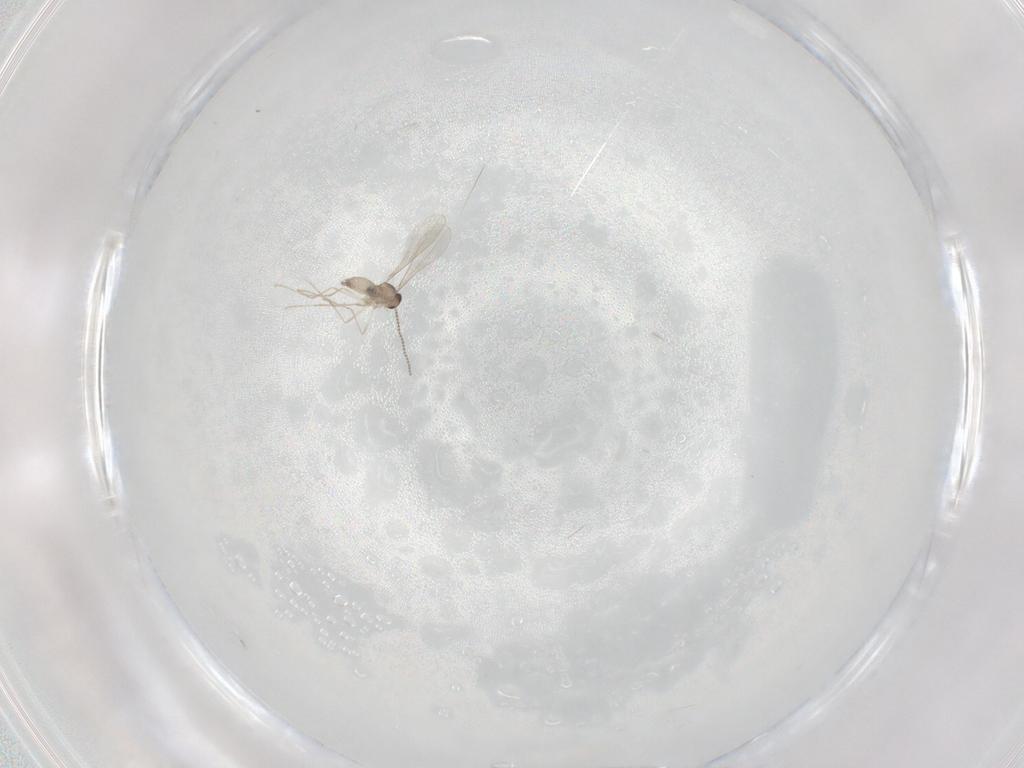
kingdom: Animalia
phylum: Arthropoda
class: Insecta
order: Diptera
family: Cecidomyiidae
